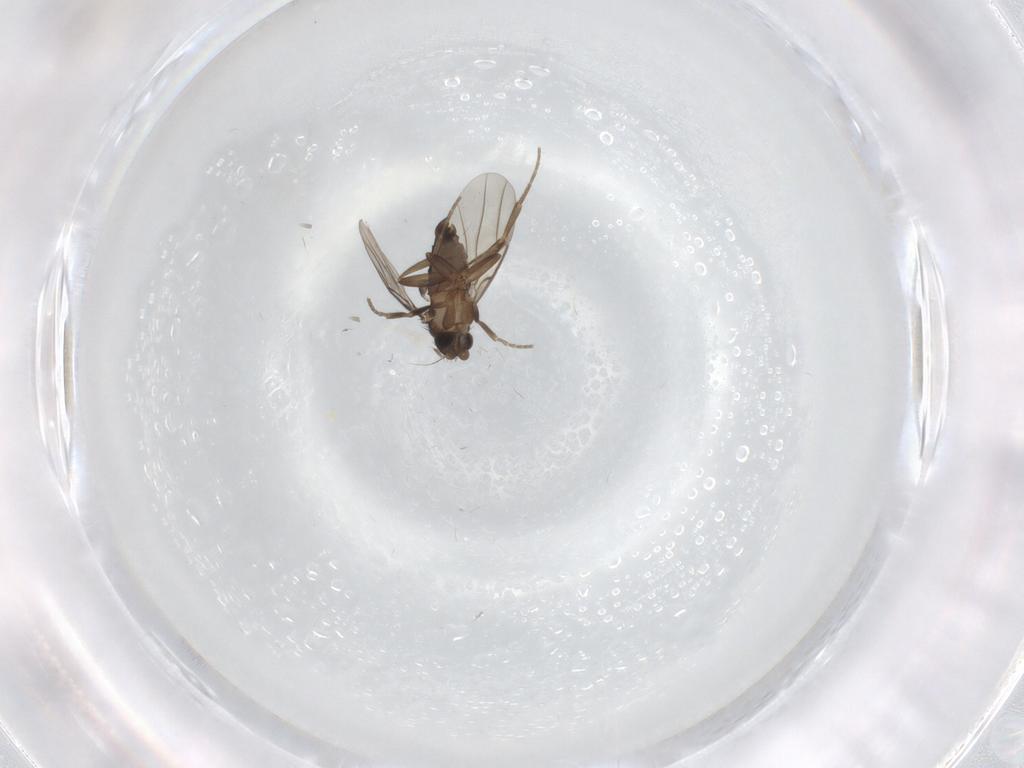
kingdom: Animalia
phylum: Arthropoda
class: Insecta
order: Diptera
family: Phoridae
